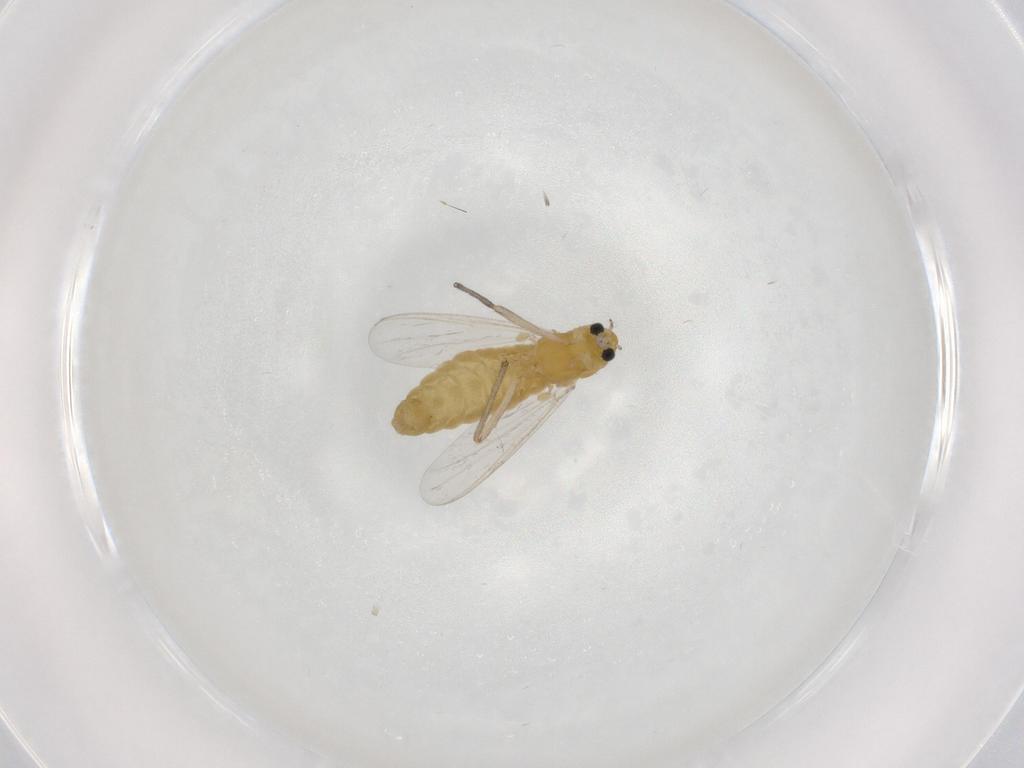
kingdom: Animalia
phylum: Arthropoda
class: Insecta
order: Diptera
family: Chironomidae
